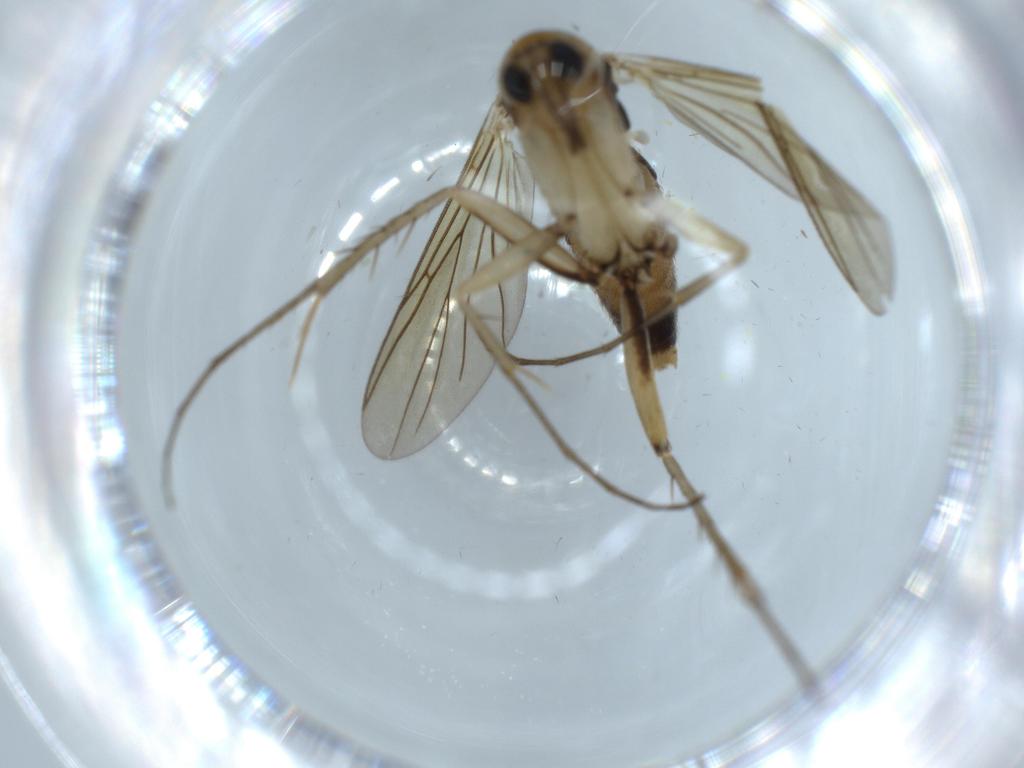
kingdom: Animalia
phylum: Arthropoda
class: Insecta
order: Diptera
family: Mycetophilidae
